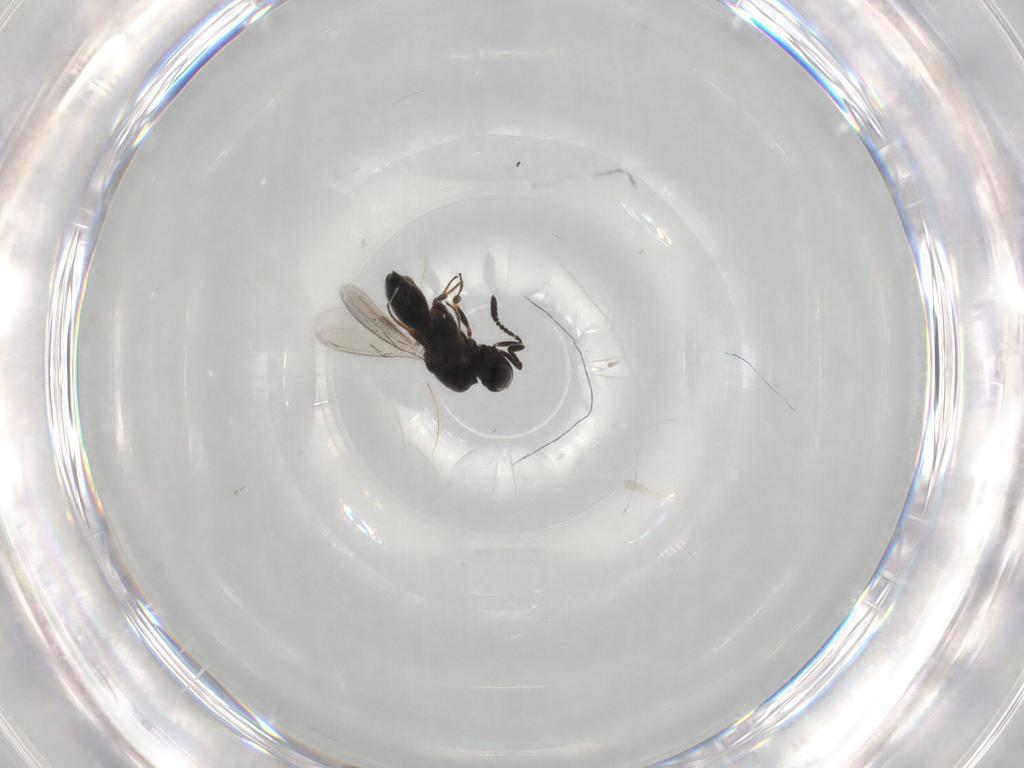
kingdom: Animalia
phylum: Arthropoda
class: Insecta
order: Hymenoptera
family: Scelionidae
